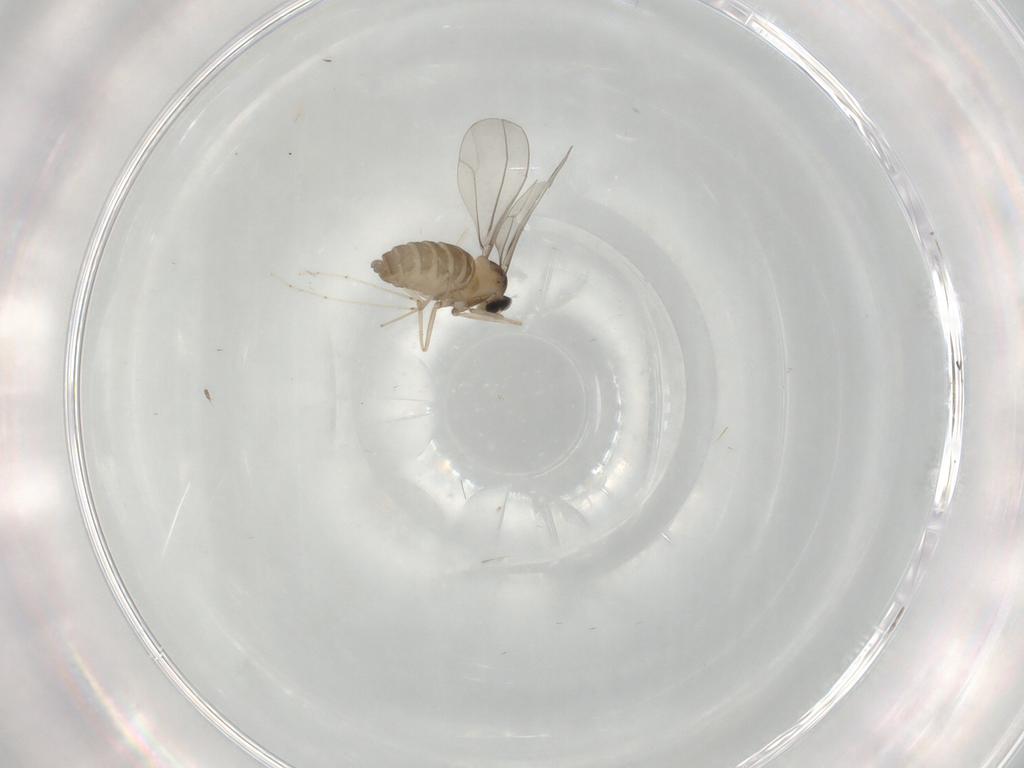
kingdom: Animalia
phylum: Arthropoda
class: Insecta
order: Diptera
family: Cecidomyiidae
